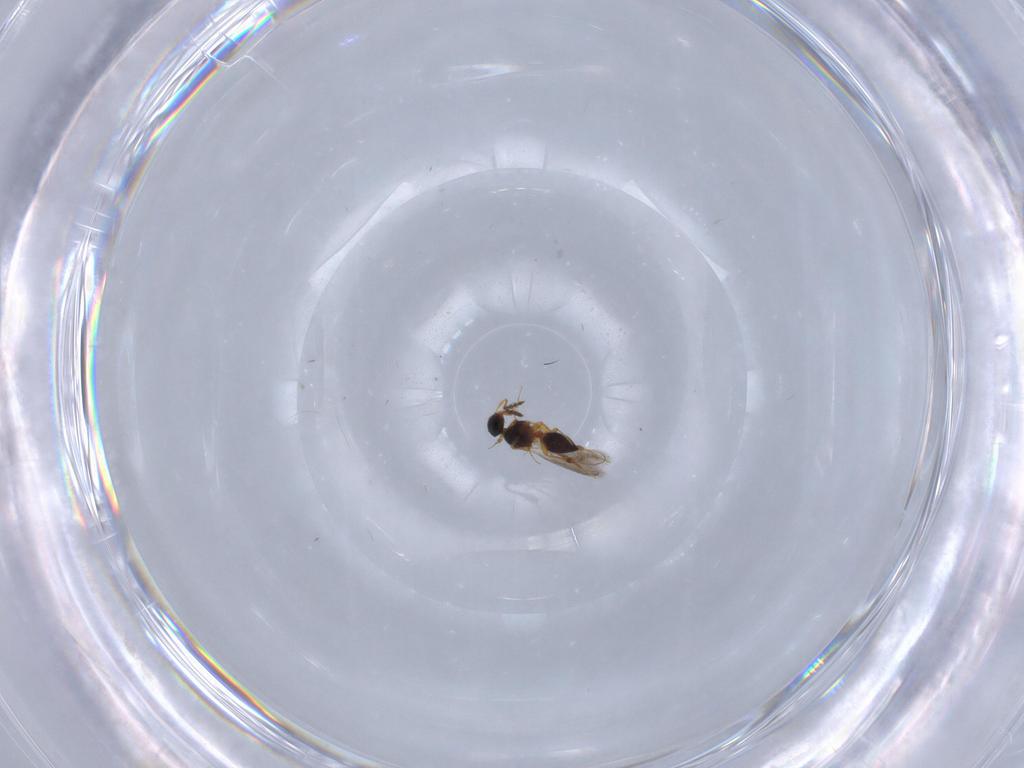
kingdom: Animalia
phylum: Arthropoda
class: Insecta
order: Hymenoptera
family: Platygastridae
